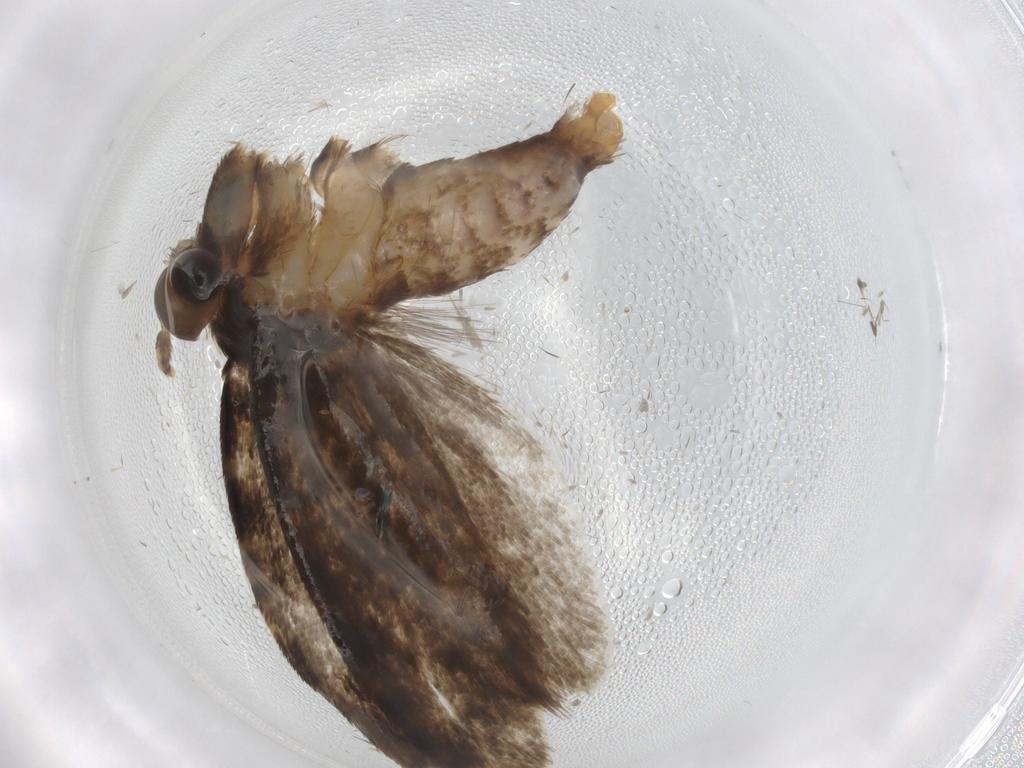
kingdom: Animalia
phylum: Arthropoda
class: Insecta
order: Lepidoptera
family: Tineidae
